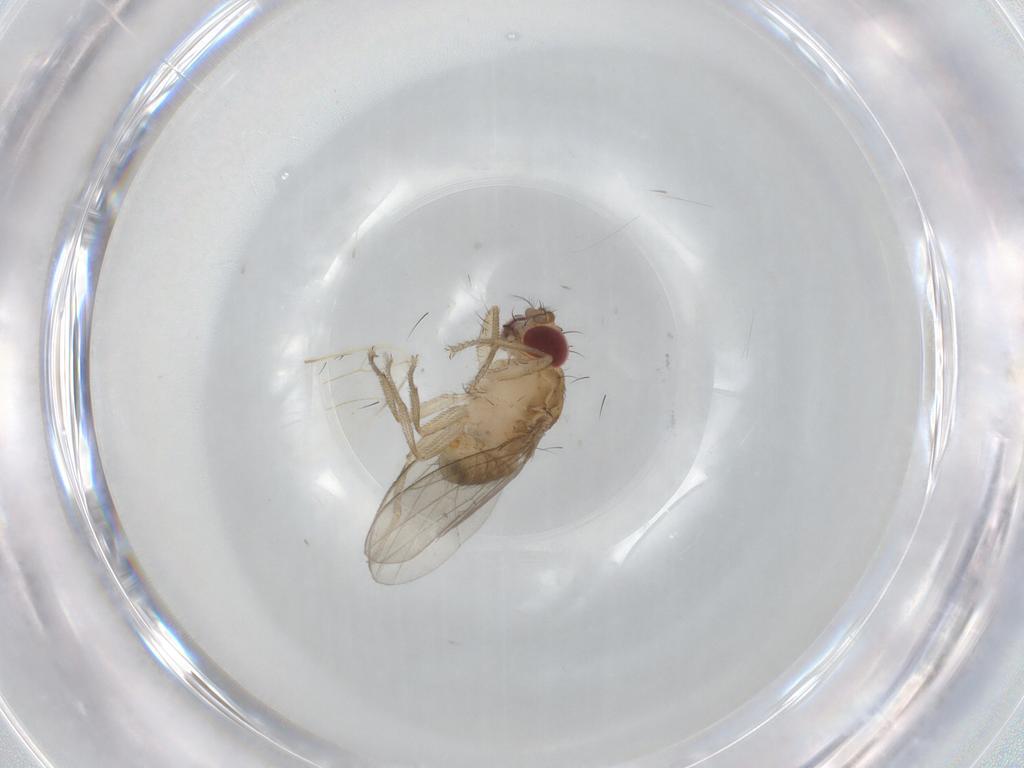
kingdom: Animalia
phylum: Arthropoda
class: Insecta
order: Diptera
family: Drosophilidae
